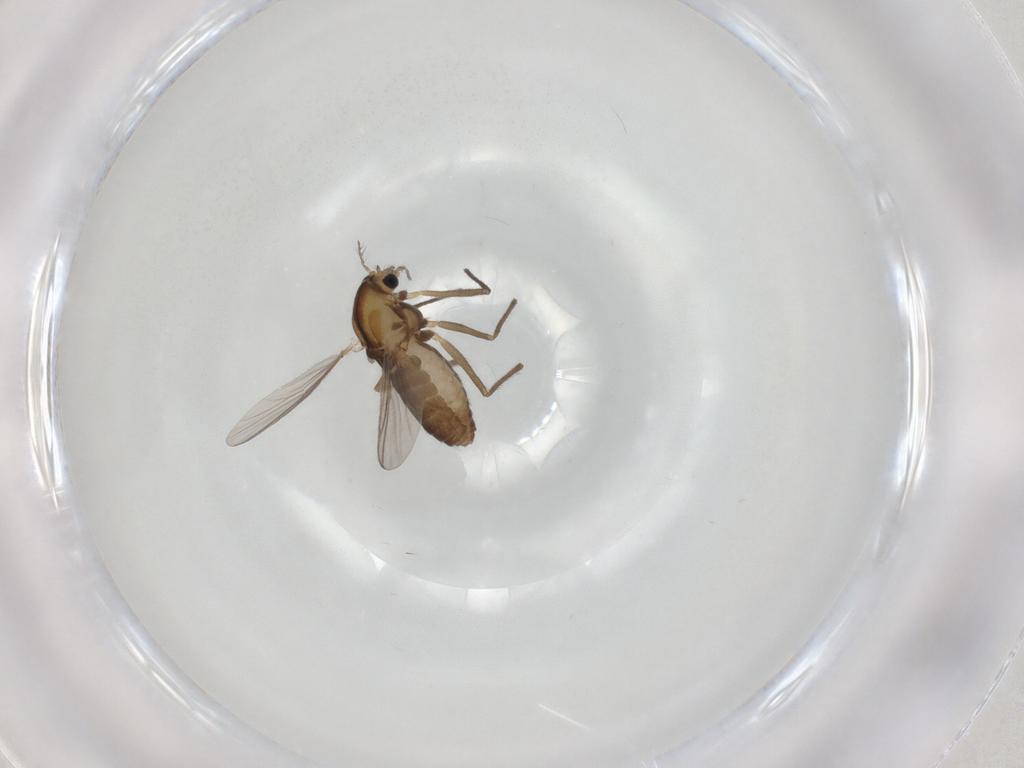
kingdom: Animalia
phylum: Arthropoda
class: Insecta
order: Diptera
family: Chironomidae
